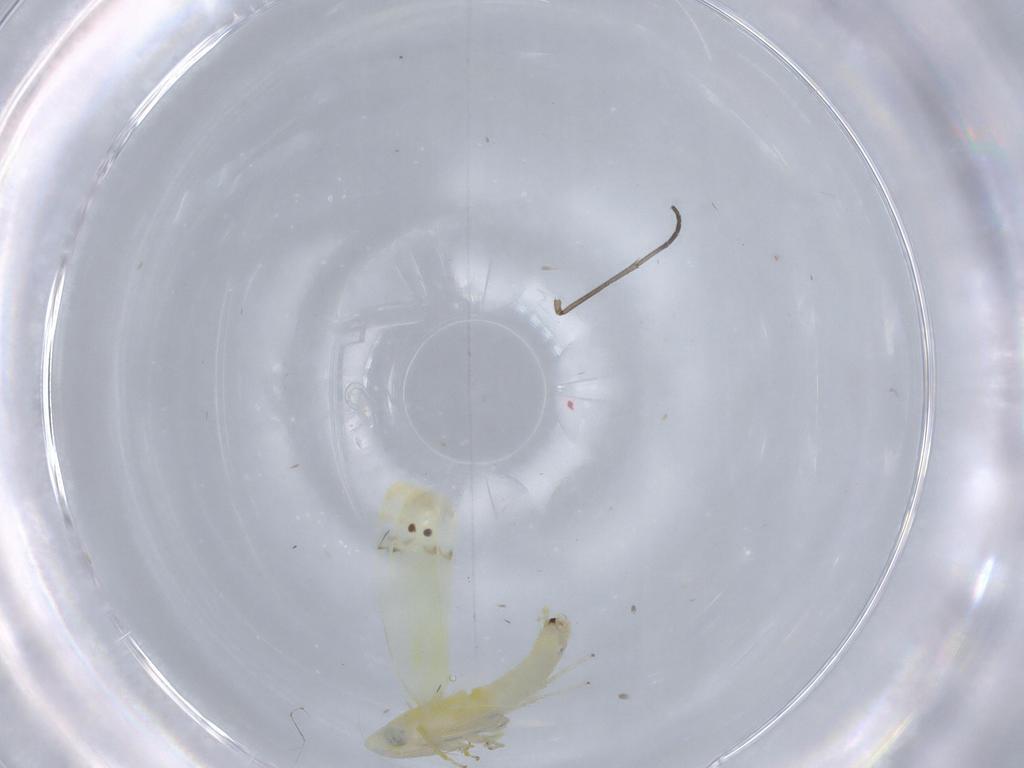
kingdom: Animalia
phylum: Arthropoda
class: Insecta
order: Hemiptera
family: Cicadellidae
